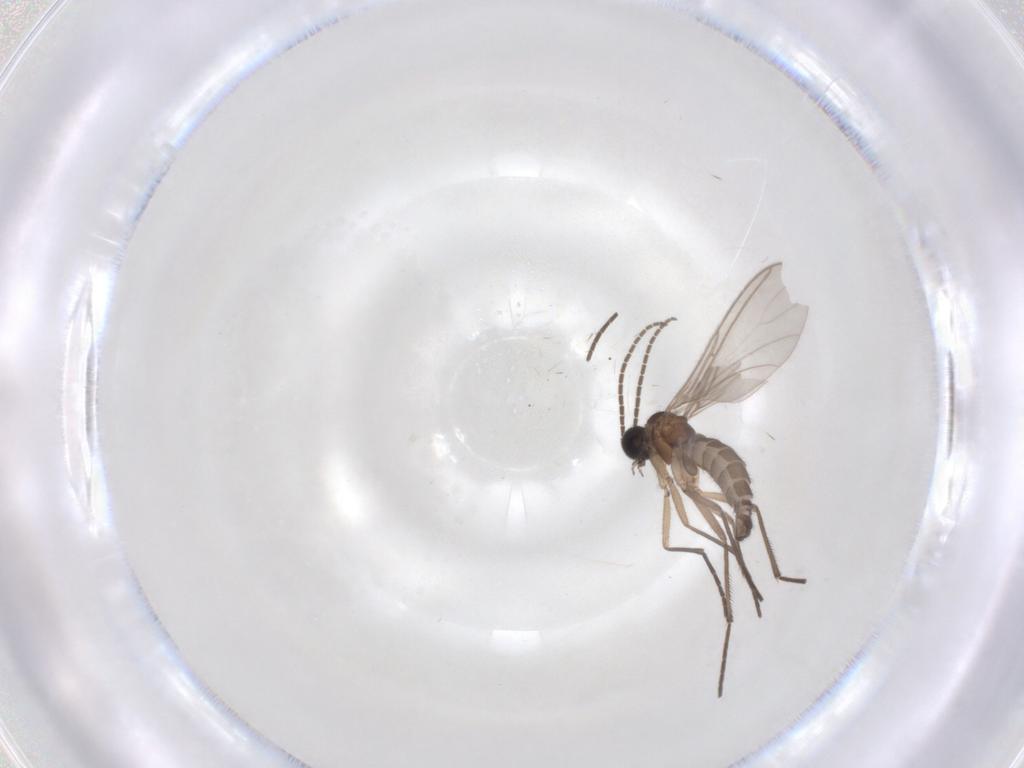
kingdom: Animalia
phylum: Arthropoda
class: Insecta
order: Diptera
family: Sciaridae
